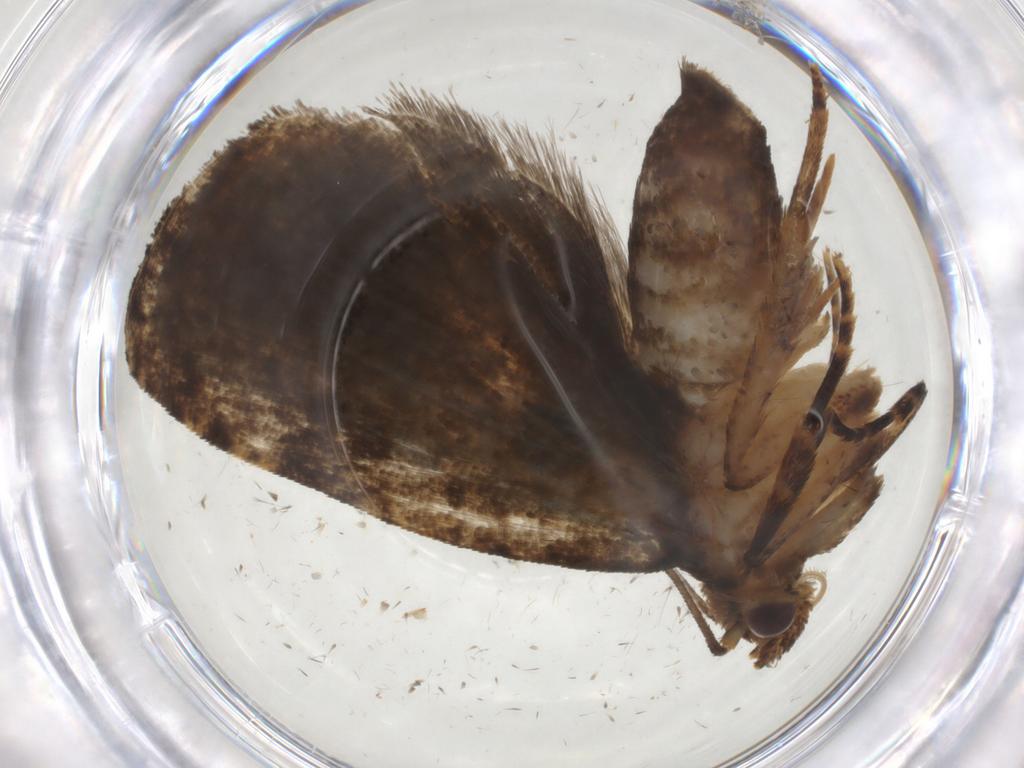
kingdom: Animalia
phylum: Arthropoda
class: Insecta
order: Lepidoptera
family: Tortricidae
